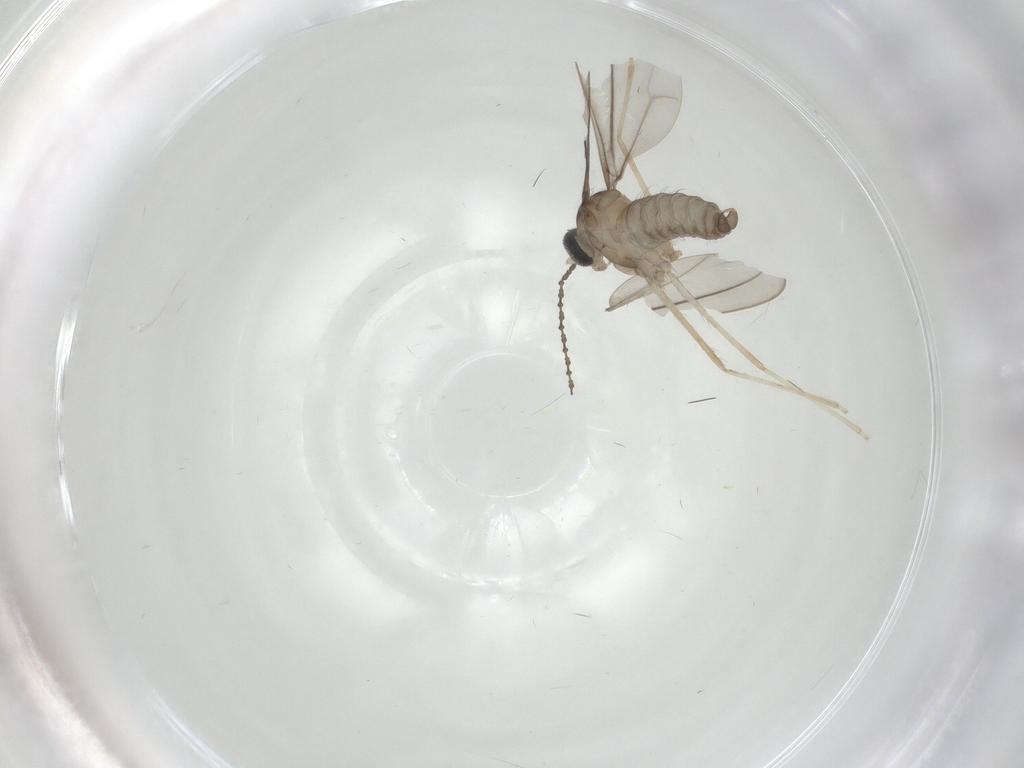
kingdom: Animalia
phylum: Arthropoda
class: Insecta
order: Diptera
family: Cecidomyiidae
